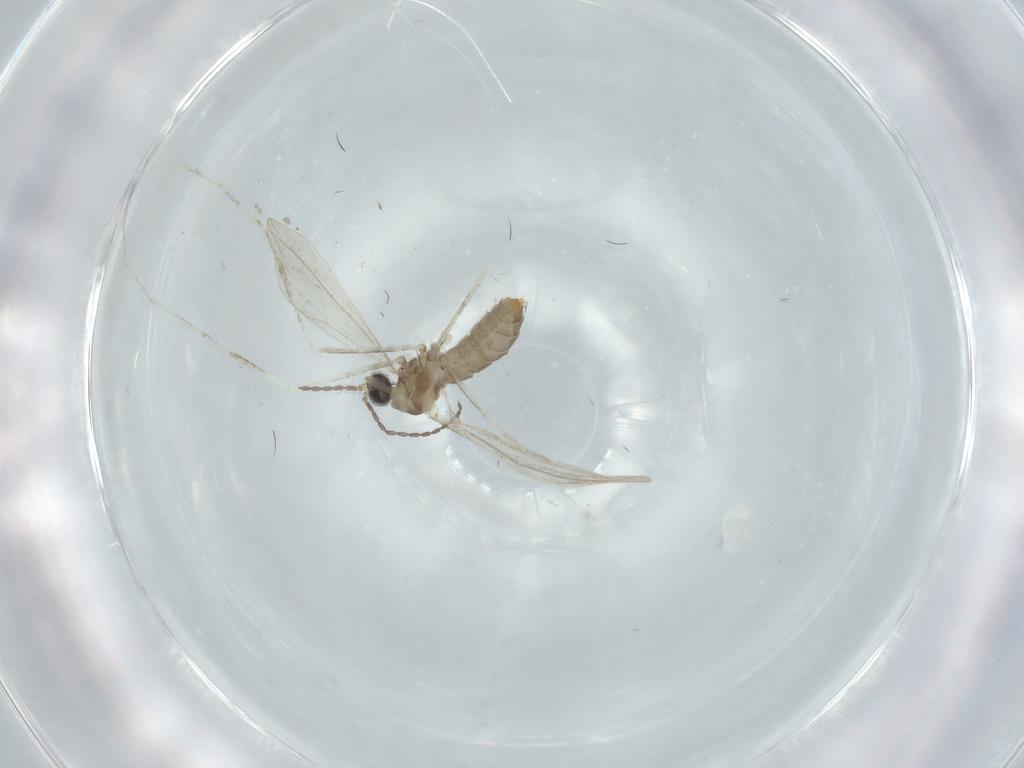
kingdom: Animalia
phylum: Arthropoda
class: Insecta
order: Diptera
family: Cecidomyiidae
